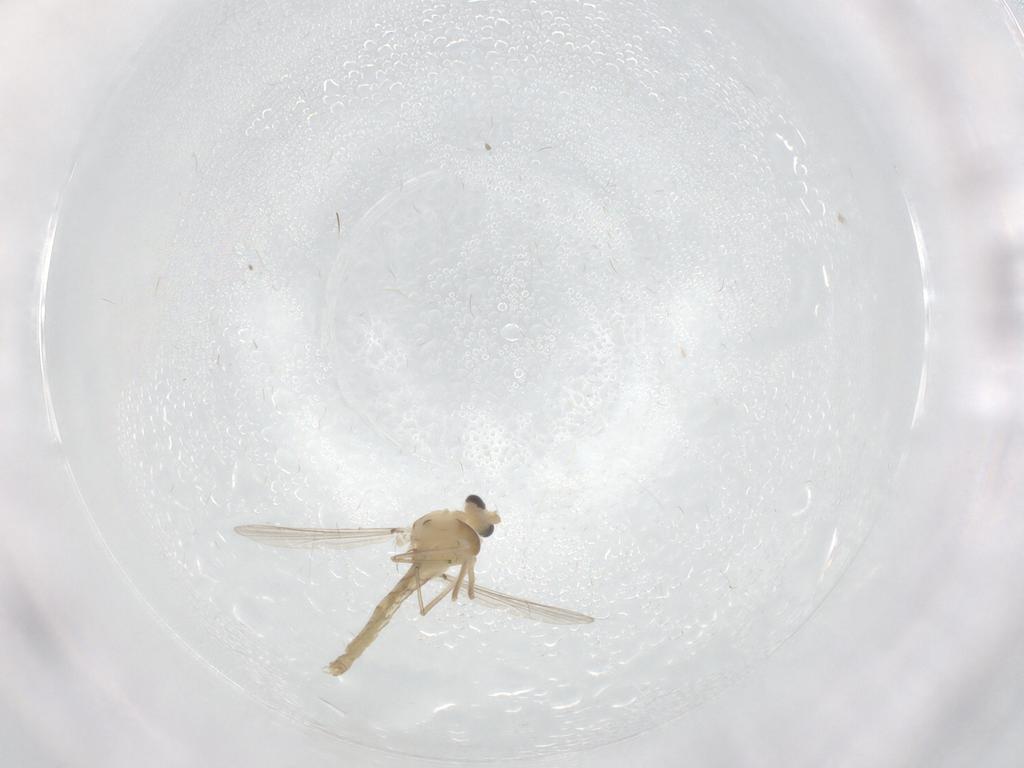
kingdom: Animalia
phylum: Arthropoda
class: Insecta
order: Diptera
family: Chironomidae
